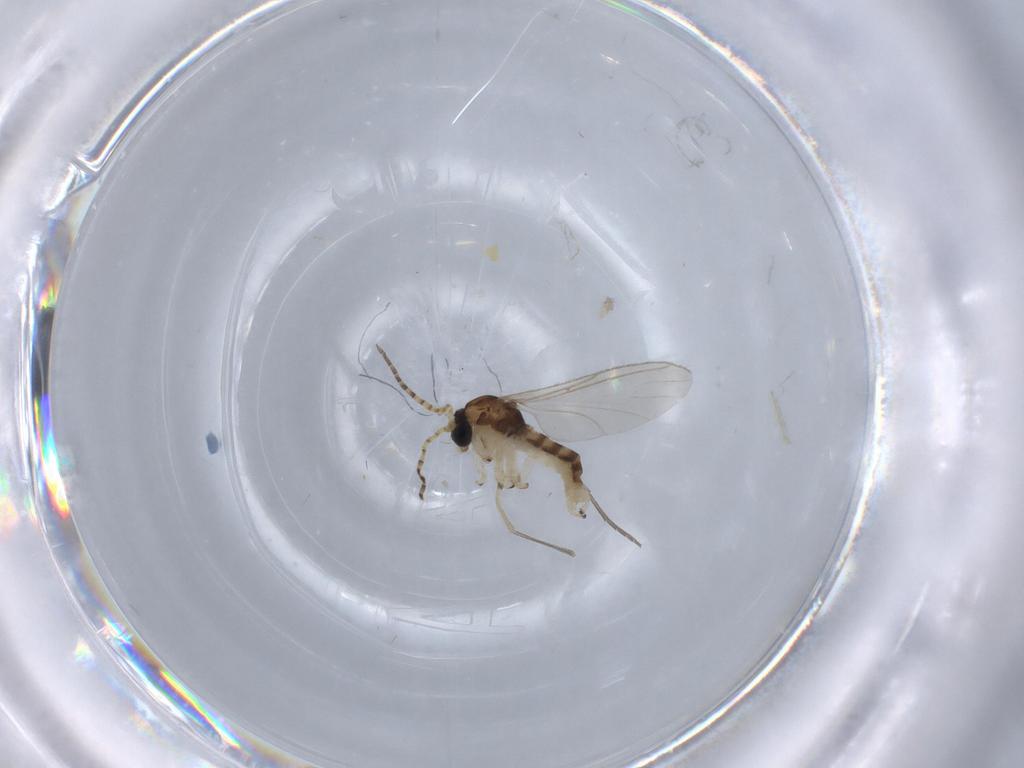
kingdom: Animalia
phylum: Arthropoda
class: Insecta
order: Diptera
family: Sciaridae
